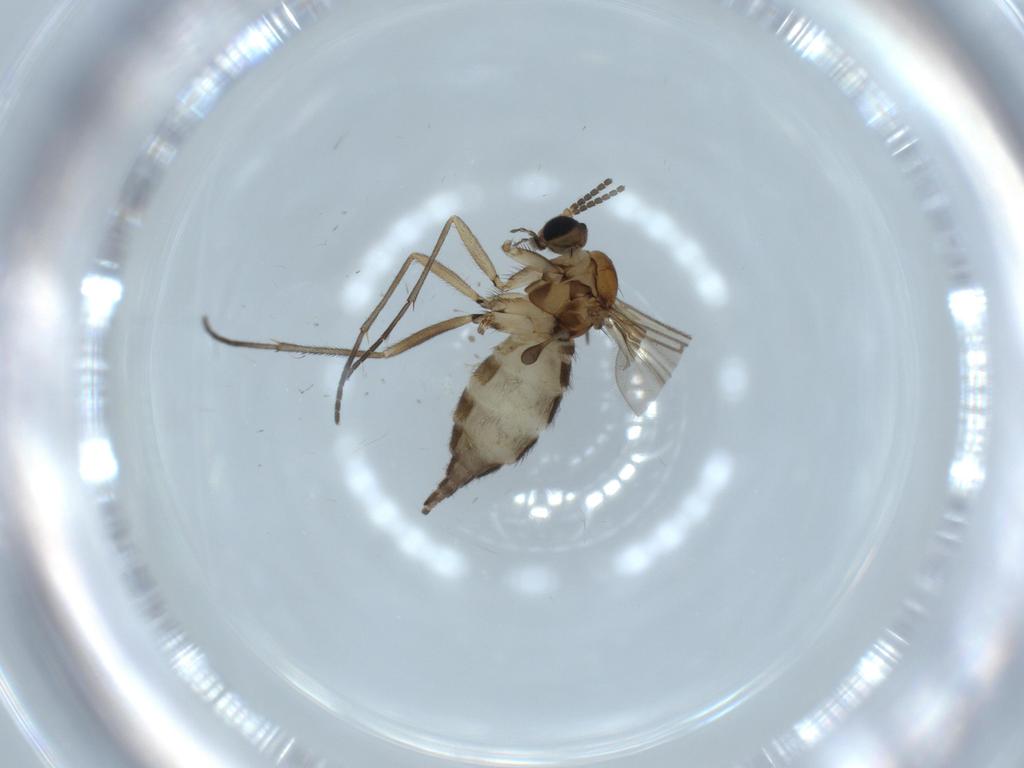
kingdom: Animalia
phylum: Arthropoda
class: Insecta
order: Diptera
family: Sciaridae
